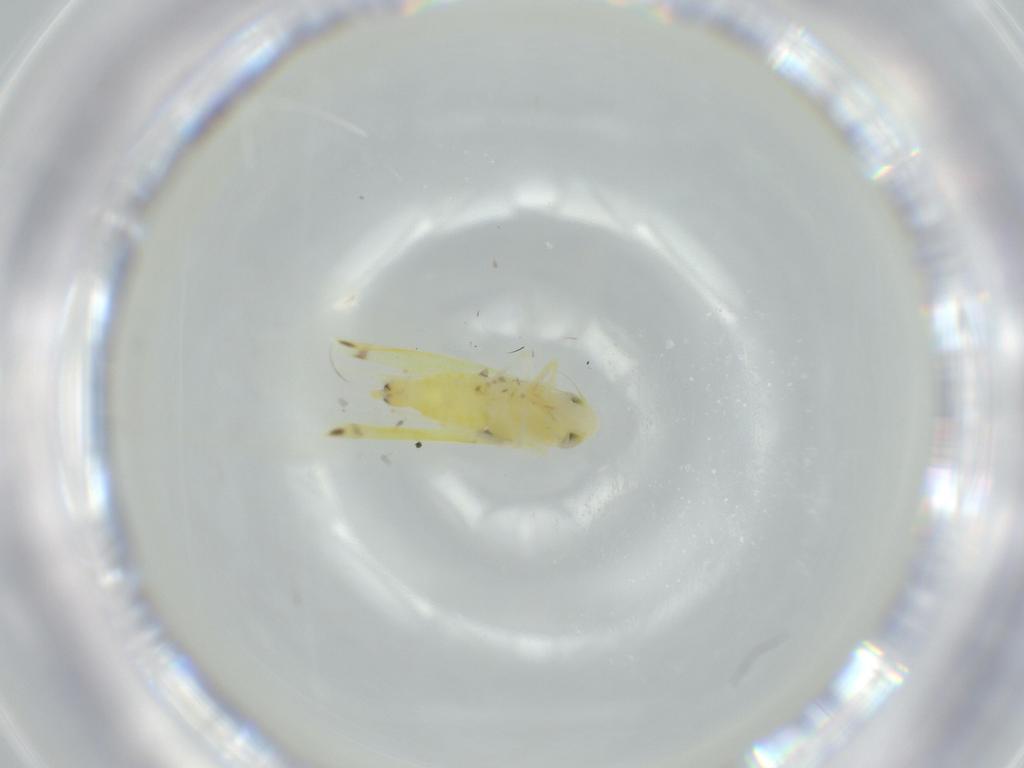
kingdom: Animalia
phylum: Arthropoda
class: Insecta
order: Hemiptera
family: Cicadellidae
